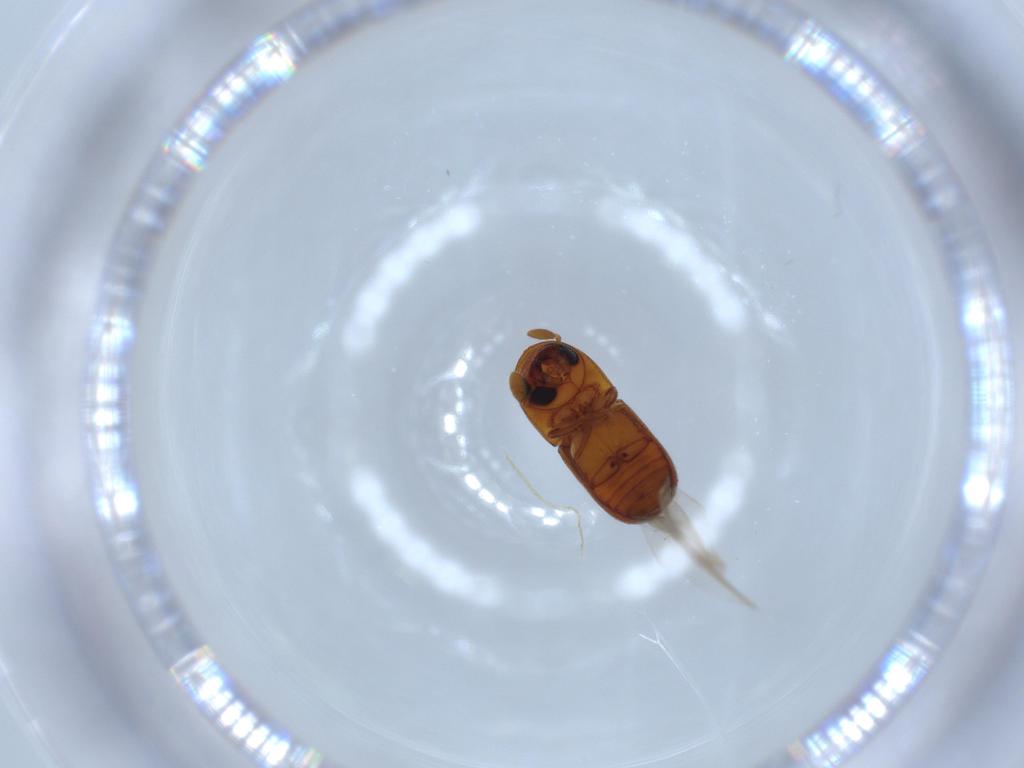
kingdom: Animalia
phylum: Arthropoda
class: Insecta
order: Coleoptera
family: Curculionidae
